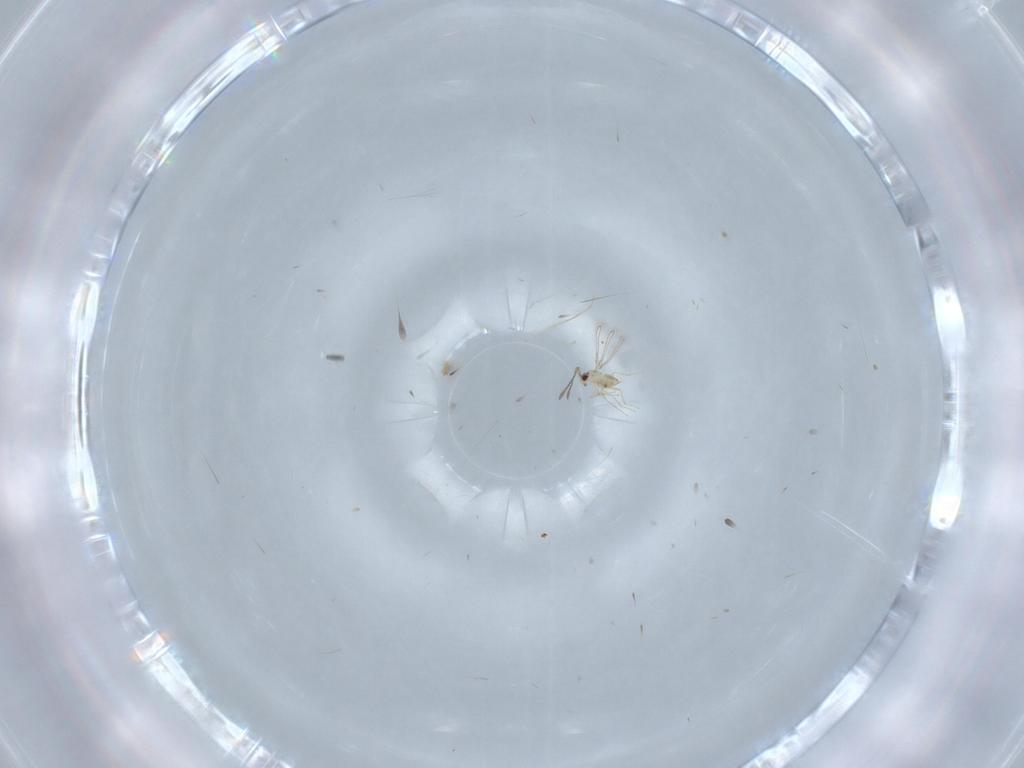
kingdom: Animalia
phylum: Arthropoda
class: Insecta
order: Hymenoptera
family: Mymaridae
